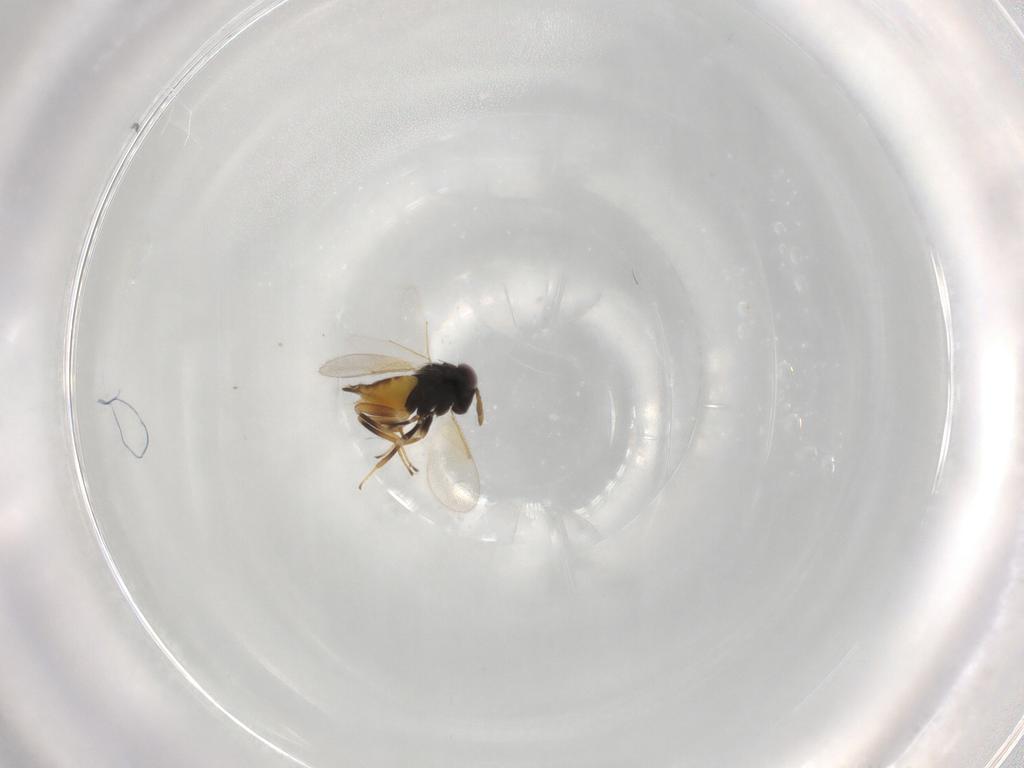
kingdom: Animalia
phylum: Arthropoda
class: Insecta
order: Hymenoptera
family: Aphelinidae
